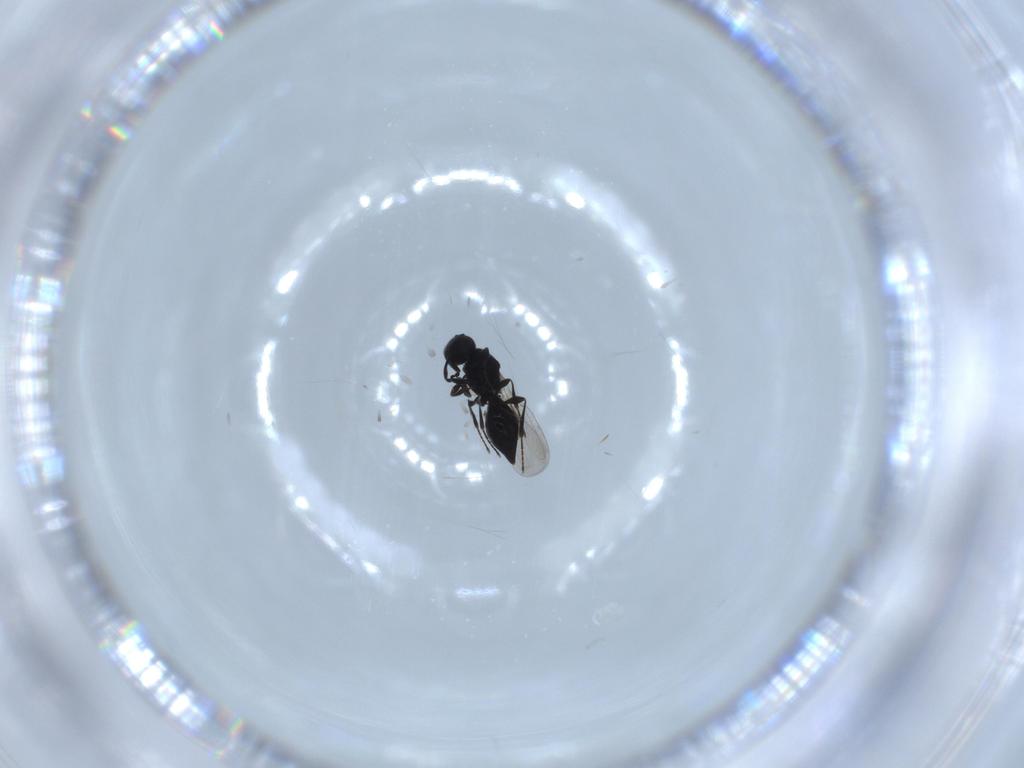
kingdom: Animalia
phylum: Arthropoda
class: Insecta
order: Hymenoptera
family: Platygastridae
